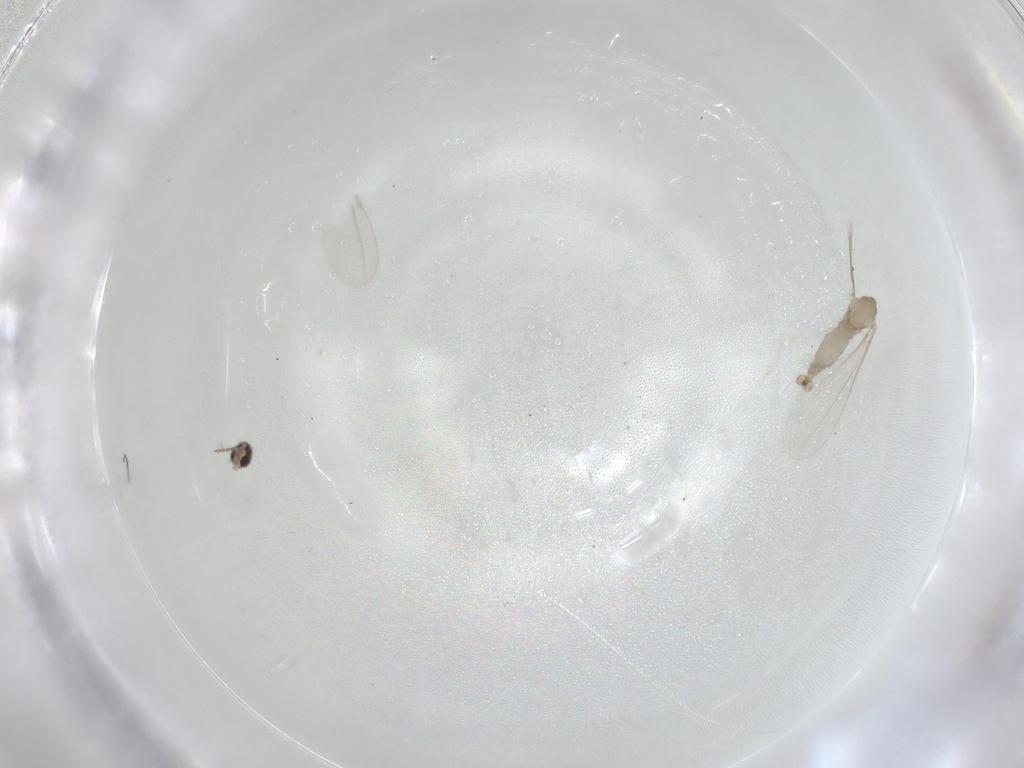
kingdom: Animalia
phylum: Arthropoda
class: Insecta
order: Diptera
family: Cecidomyiidae
